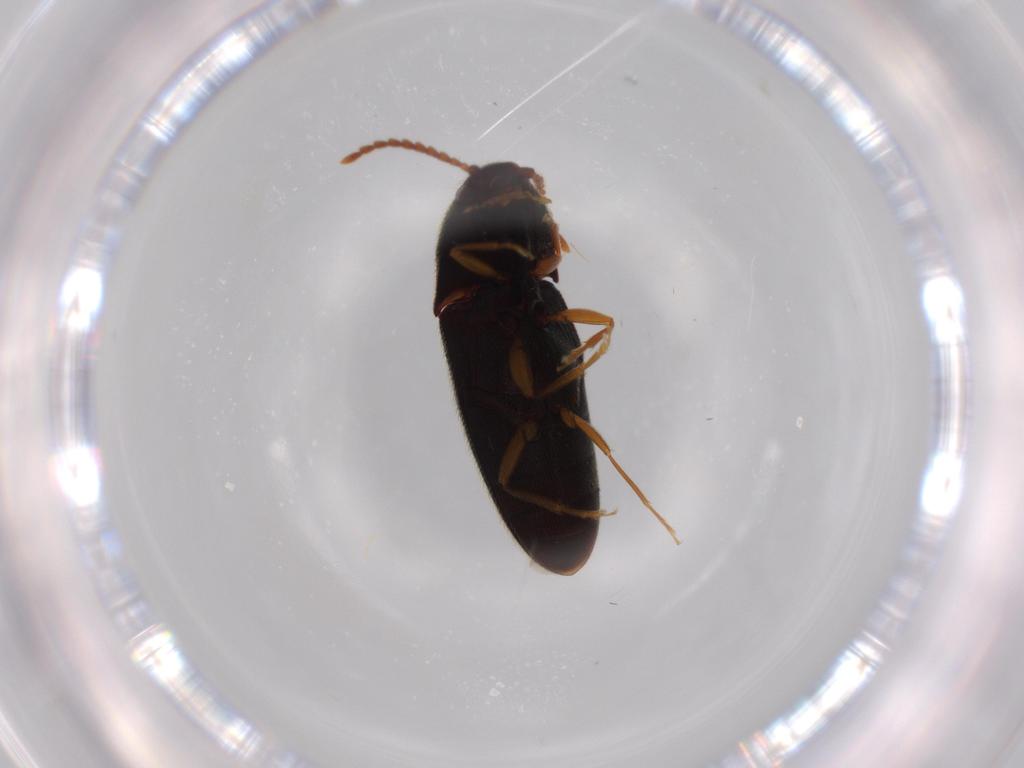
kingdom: Animalia
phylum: Arthropoda
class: Insecta
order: Coleoptera
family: Elateridae
